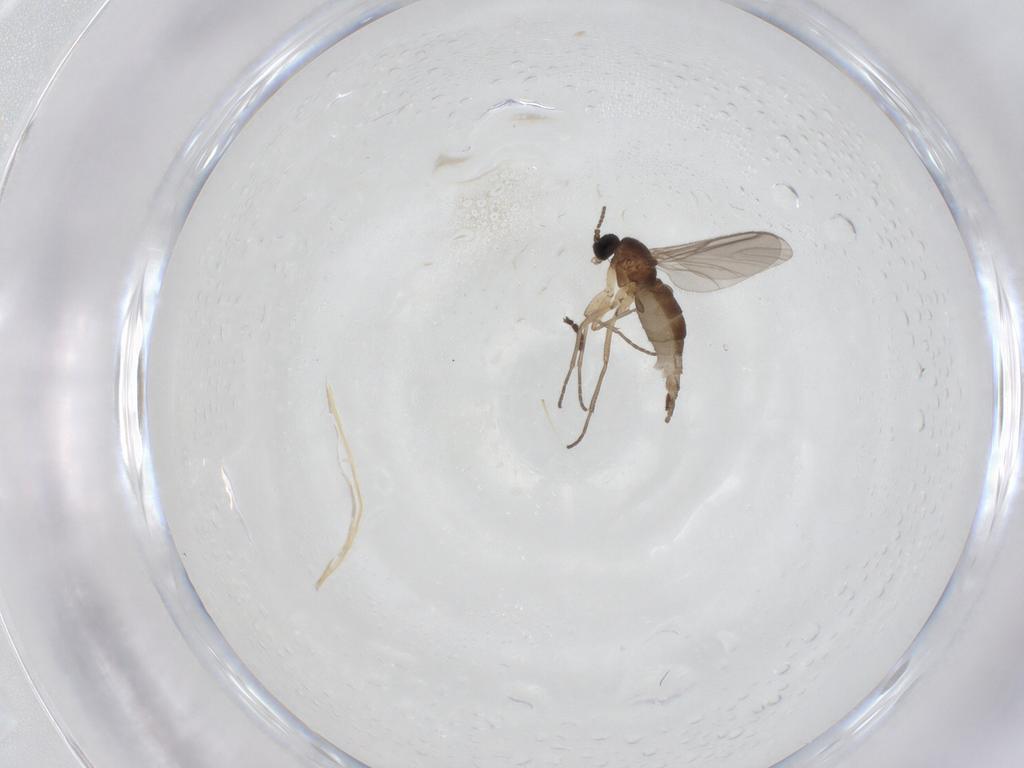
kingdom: Animalia
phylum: Arthropoda
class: Insecta
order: Diptera
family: Sciaridae
